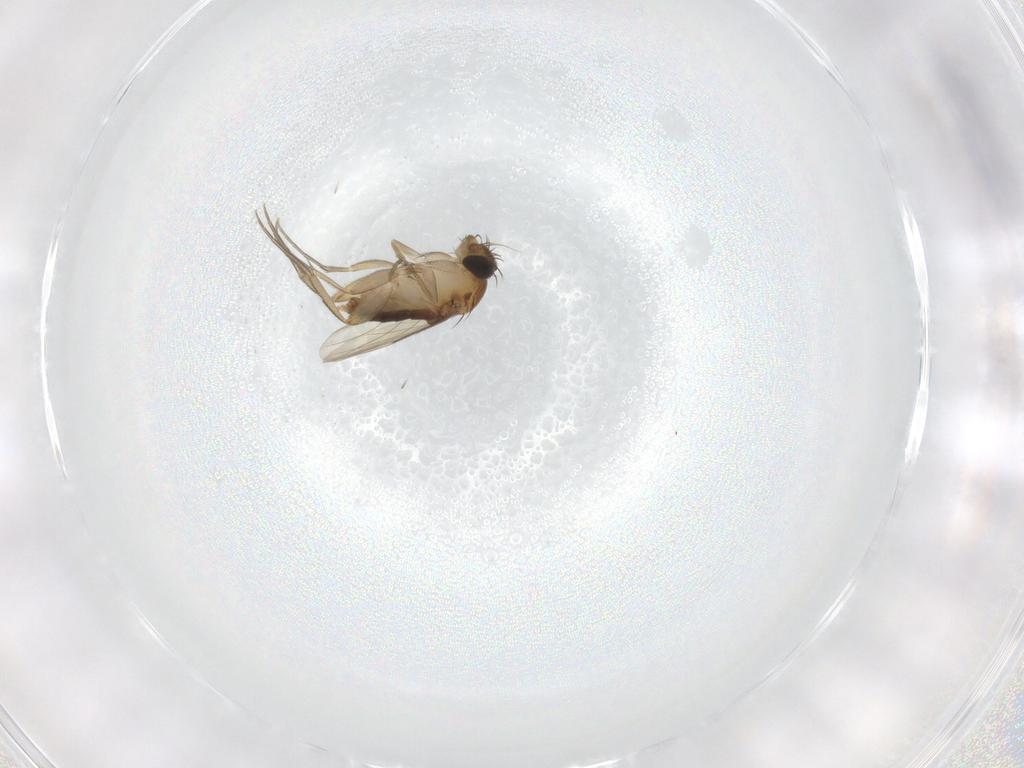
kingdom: Animalia
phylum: Arthropoda
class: Insecta
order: Diptera
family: Phoridae
